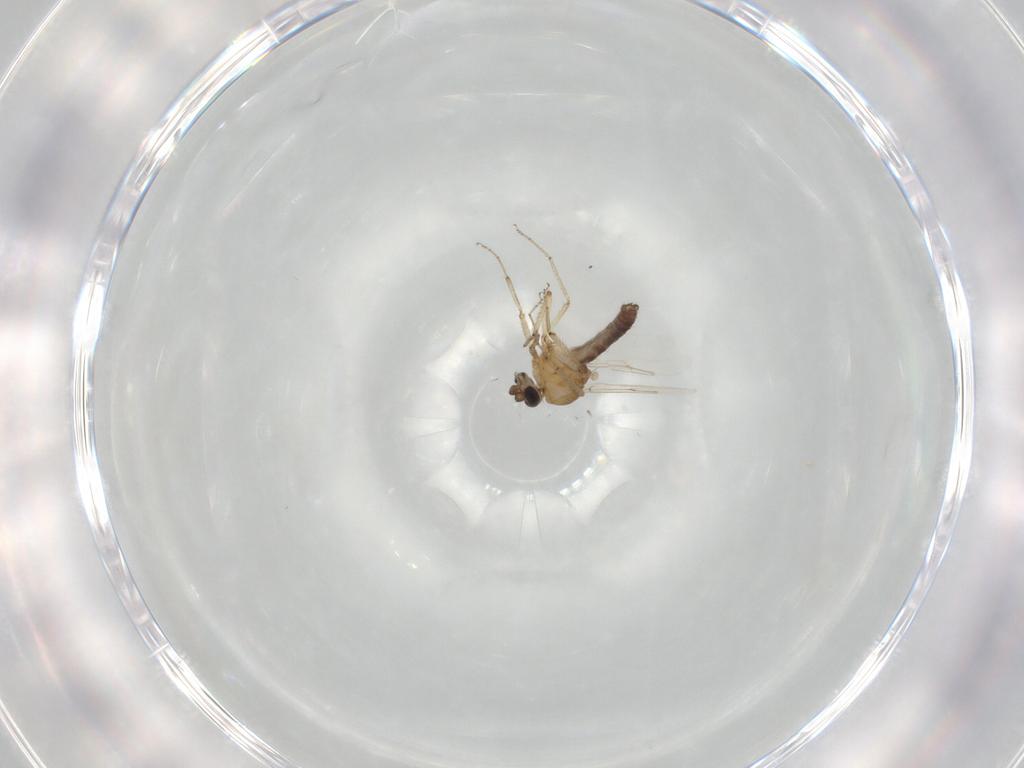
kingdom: Animalia
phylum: Arthropoda
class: Insecta
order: Diptera
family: Ceratopogonidae
